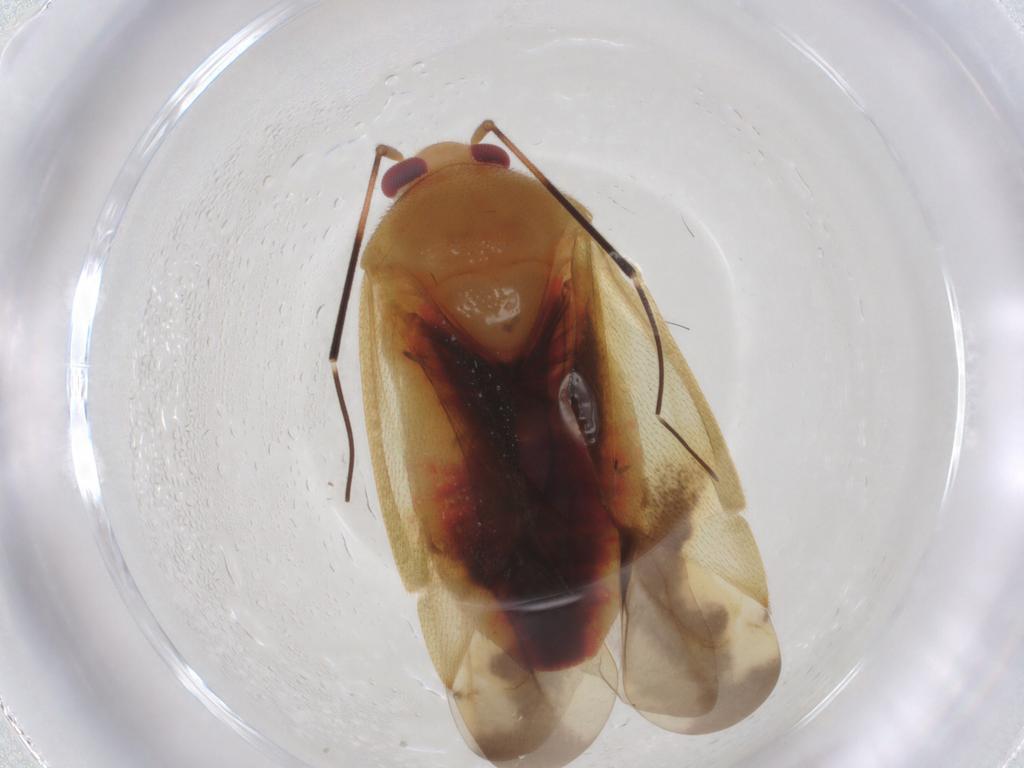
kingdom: Animalia
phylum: Arthropoda
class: Insecta
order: Hemiptera
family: Miridae
